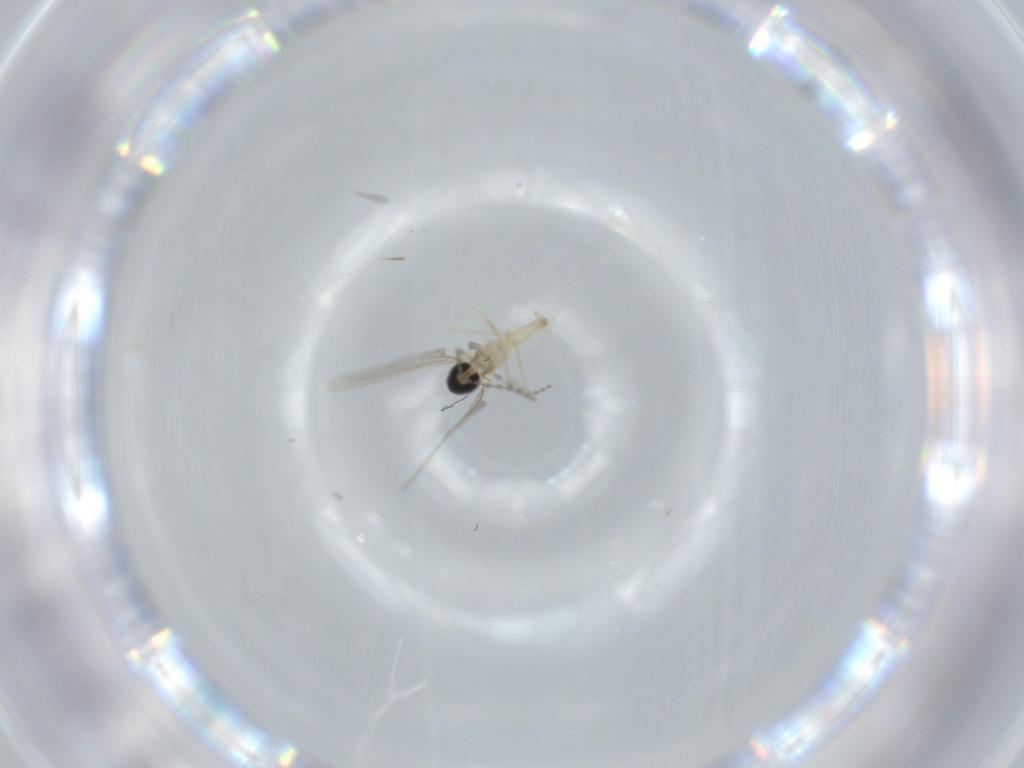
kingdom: Animalia
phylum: Arthropoda
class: Insecta
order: Diptera
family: Cecidomyiidae
